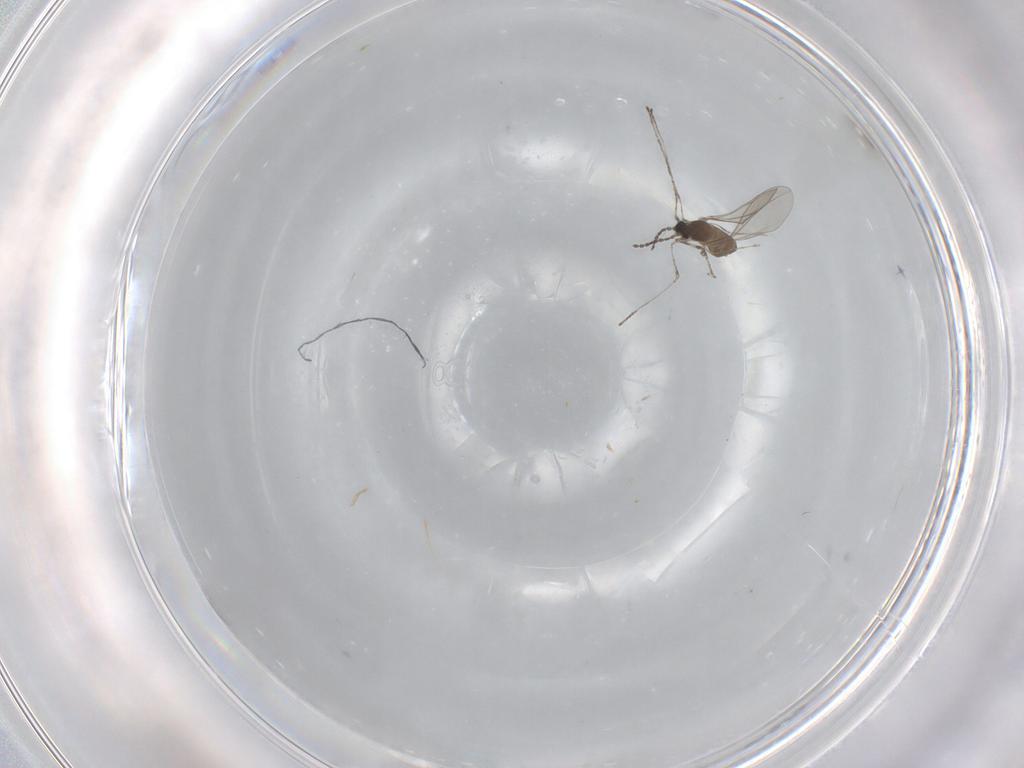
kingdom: Animalia
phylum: Arthropoda
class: Insecta
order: Diptera
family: Cecidomyiidae
